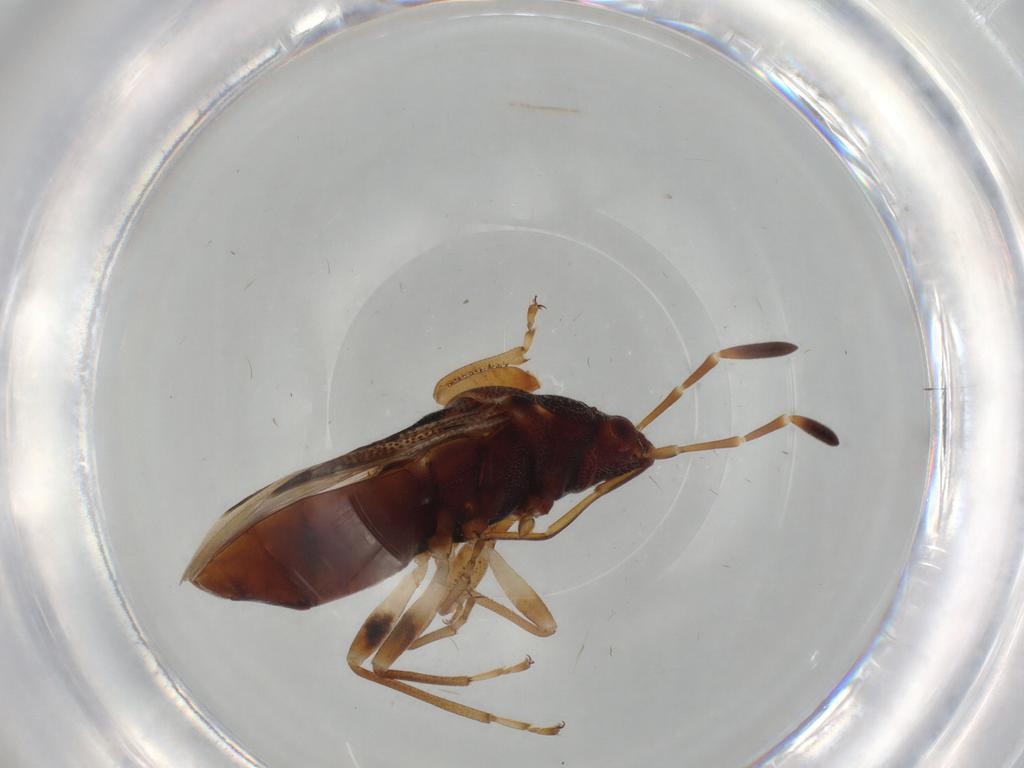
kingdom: Animalia
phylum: Arthropoda
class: Insecta
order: Hemiptera
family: Rhyparochromidae
